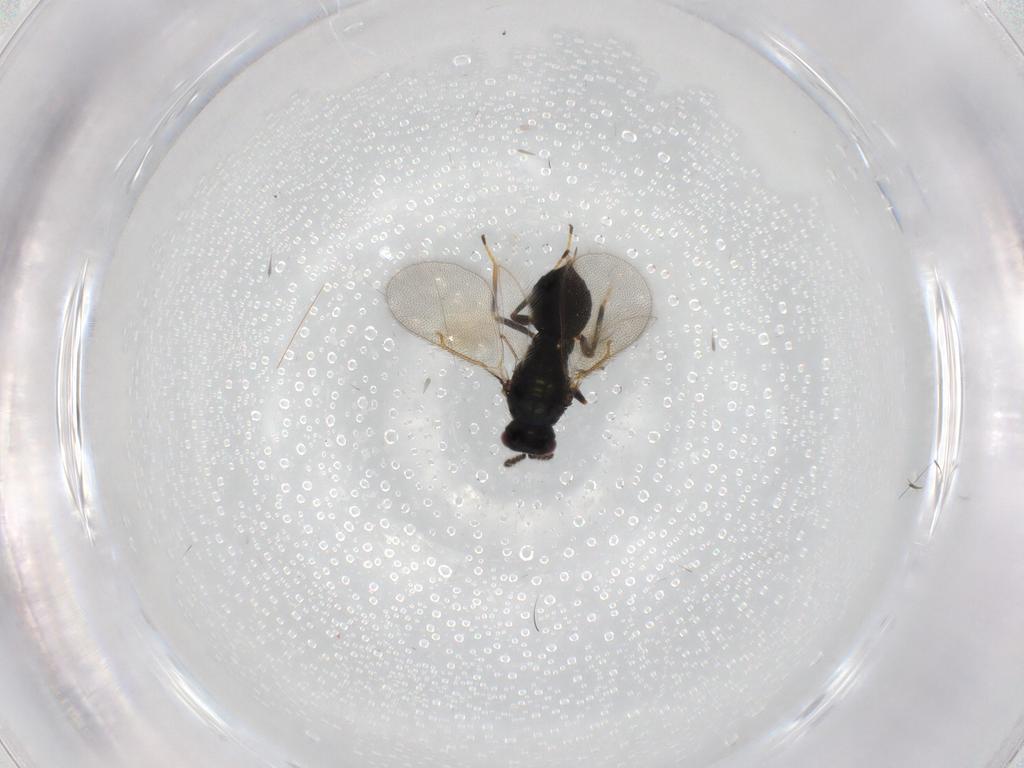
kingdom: Animalia
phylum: Arthropoda
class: Insecta
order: Hymenoptera
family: Eulophidae
